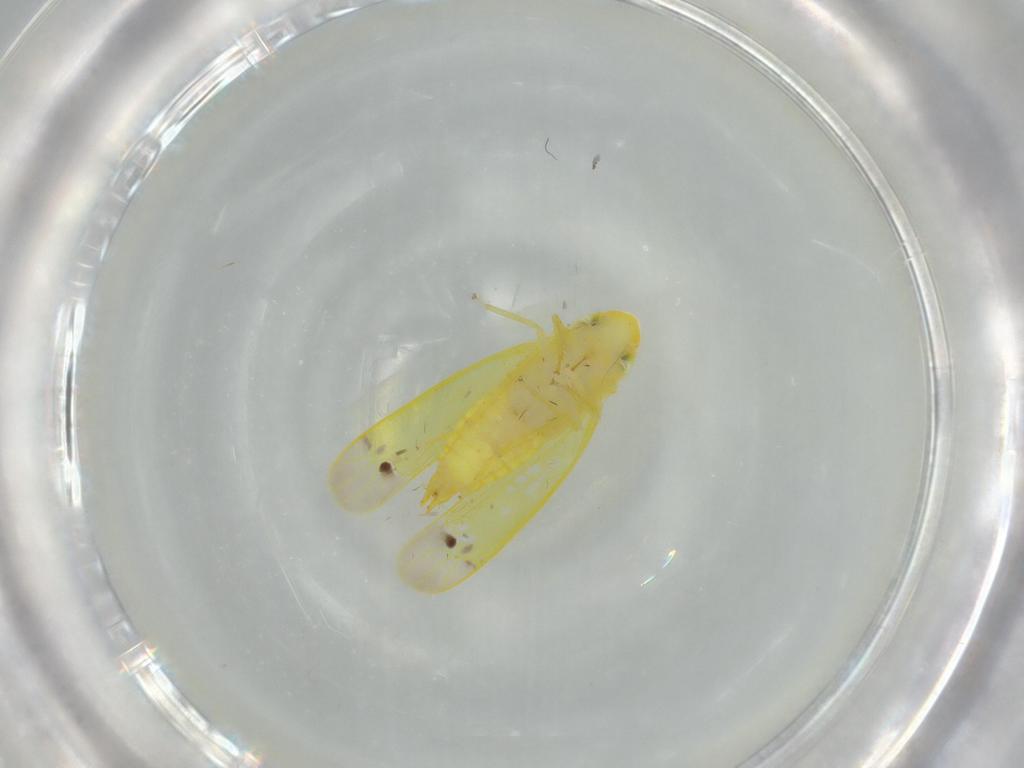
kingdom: Animalia
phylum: Arthropoda
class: Insecta
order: Hemiptera
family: Cicadellidae
